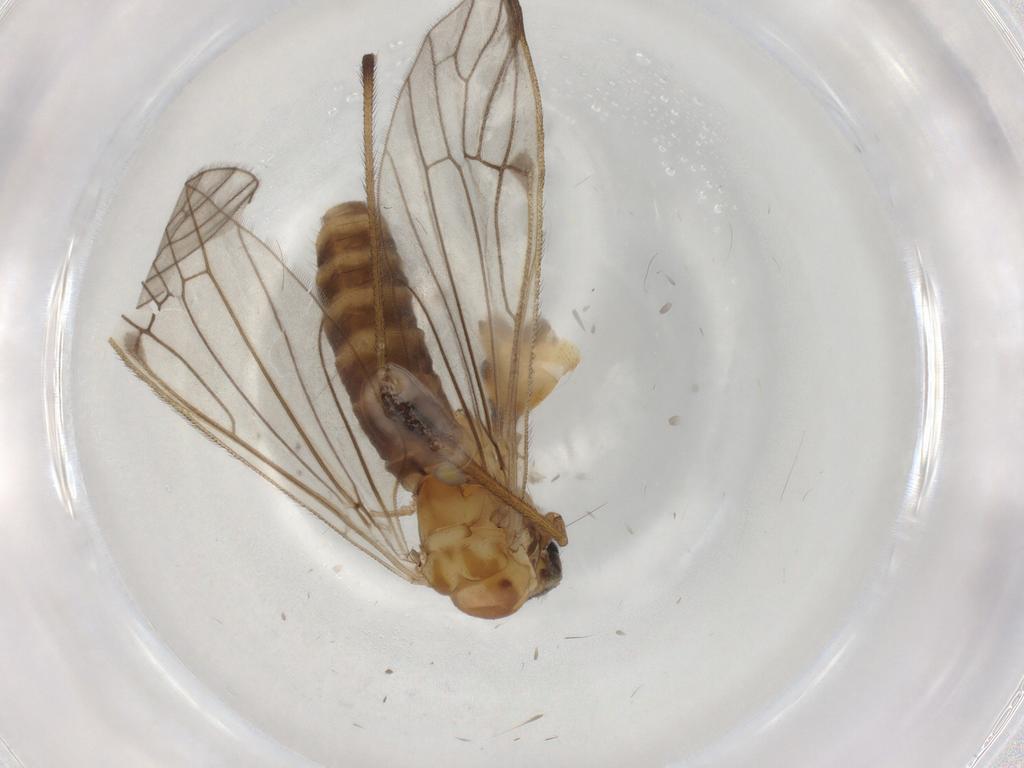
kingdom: Animalia
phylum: Arthropoda
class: Insecta
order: Diptera
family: Limoniidae
